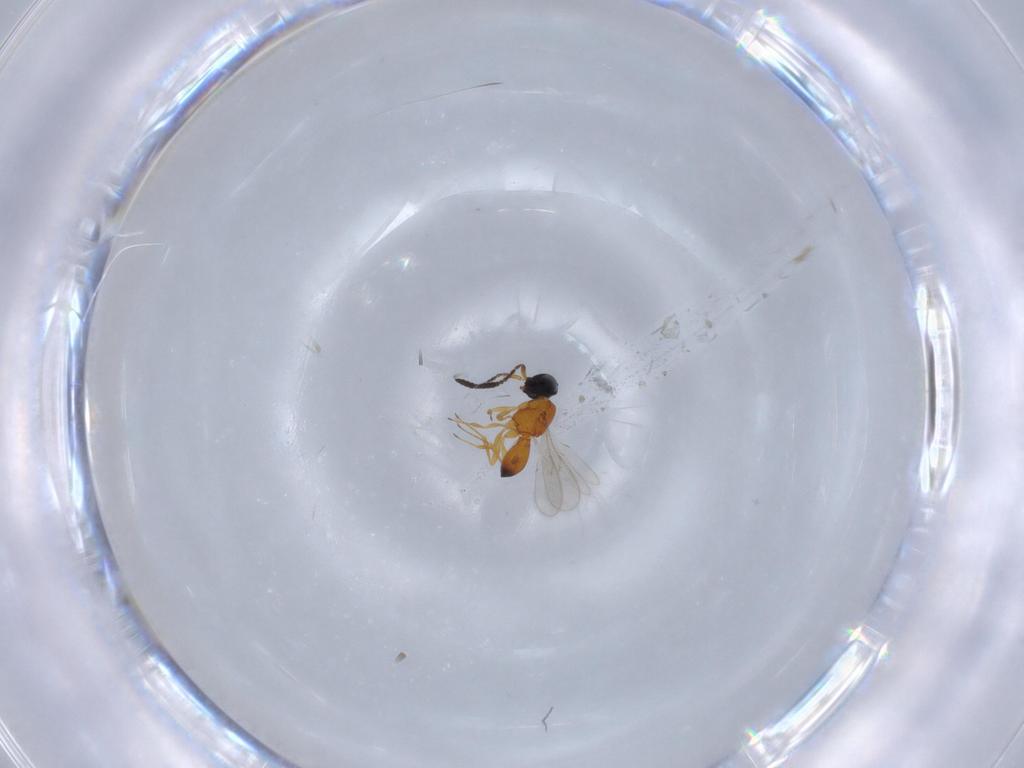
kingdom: Animalia
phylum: Arthropoda
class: Insecta
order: Hymenoptera
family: Scelionidae
